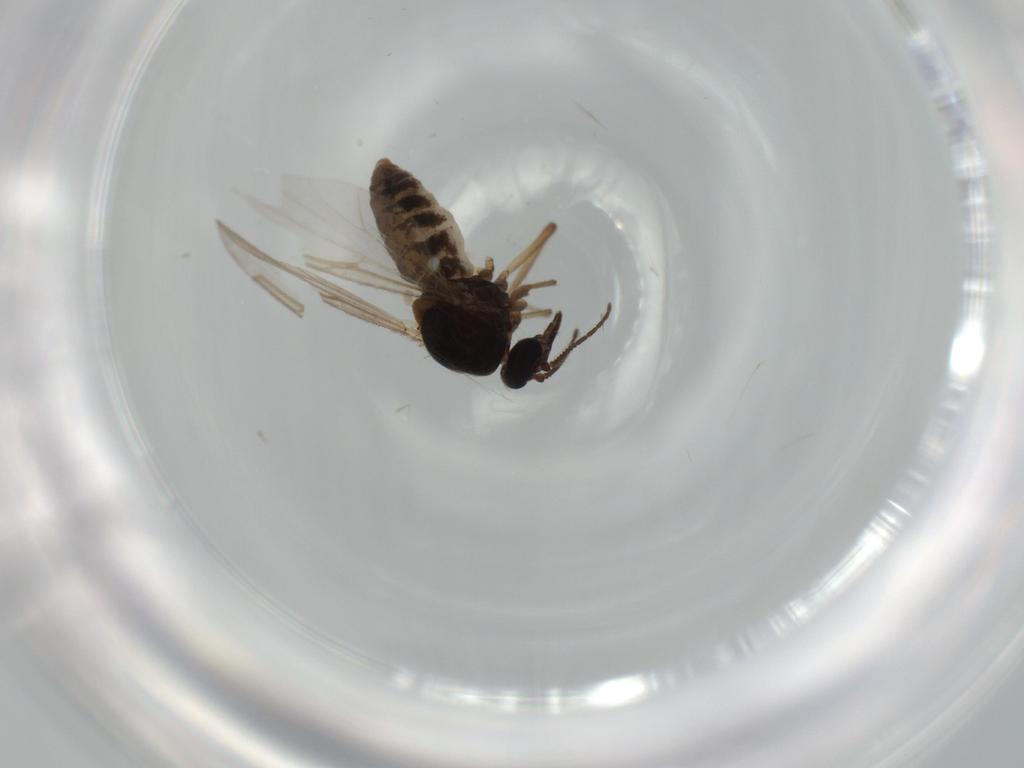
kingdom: Animalia
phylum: Arthropoda
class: Insecta
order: Diptera
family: Ceratopogonidae
